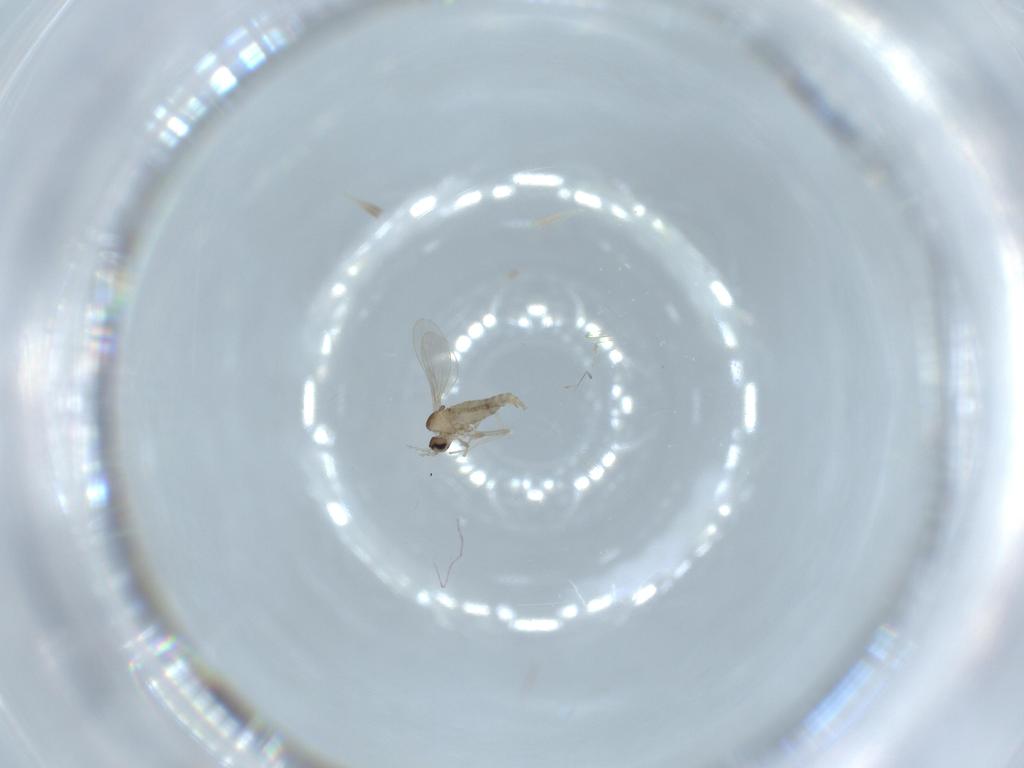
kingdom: Animalia
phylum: Arthropoda
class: Insecta
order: Diptera
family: Cecidomyiidae
